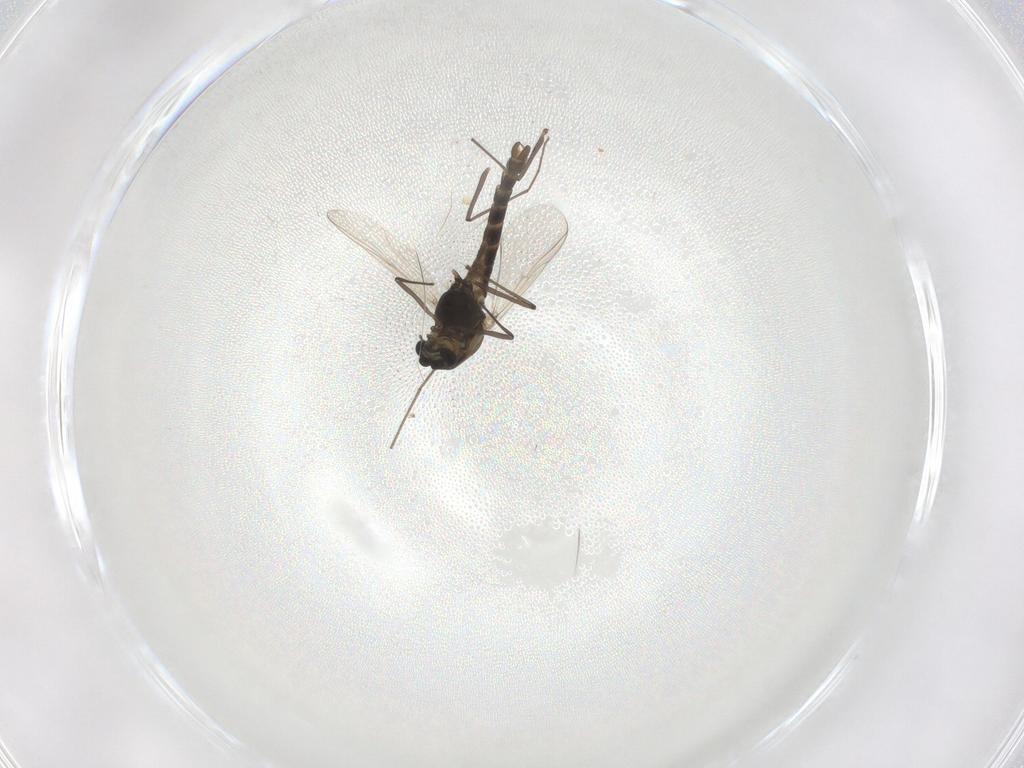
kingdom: Animalia
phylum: Arthropoda
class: Insecta
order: Diptera
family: Chironomidae
